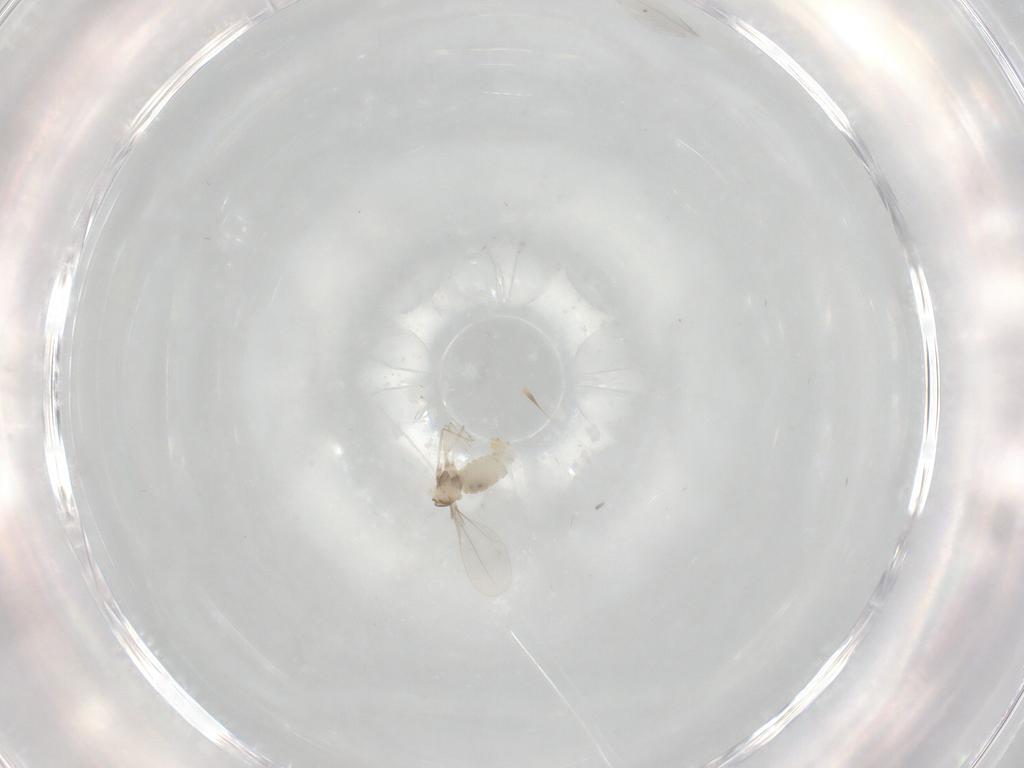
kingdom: Animalia
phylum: Arthropoda
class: Insecta
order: Diptera
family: Cecidomyiidae
